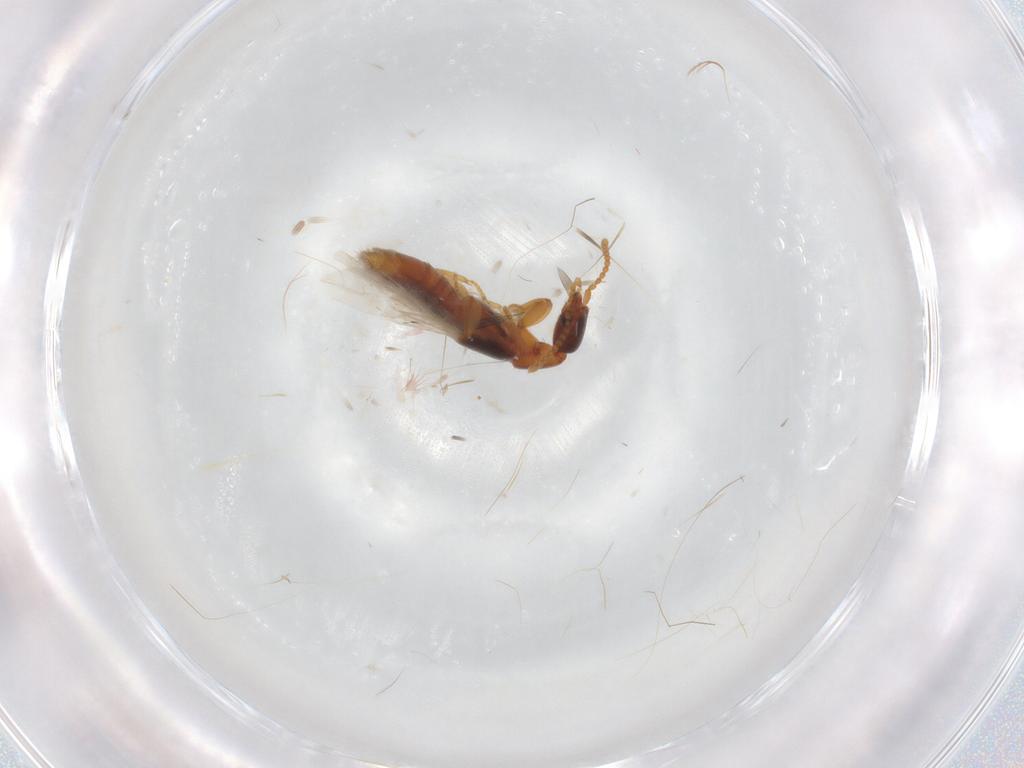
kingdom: Animalia
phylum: Arthropoda
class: Insecta
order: Coleoptera
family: Staphylinidae
